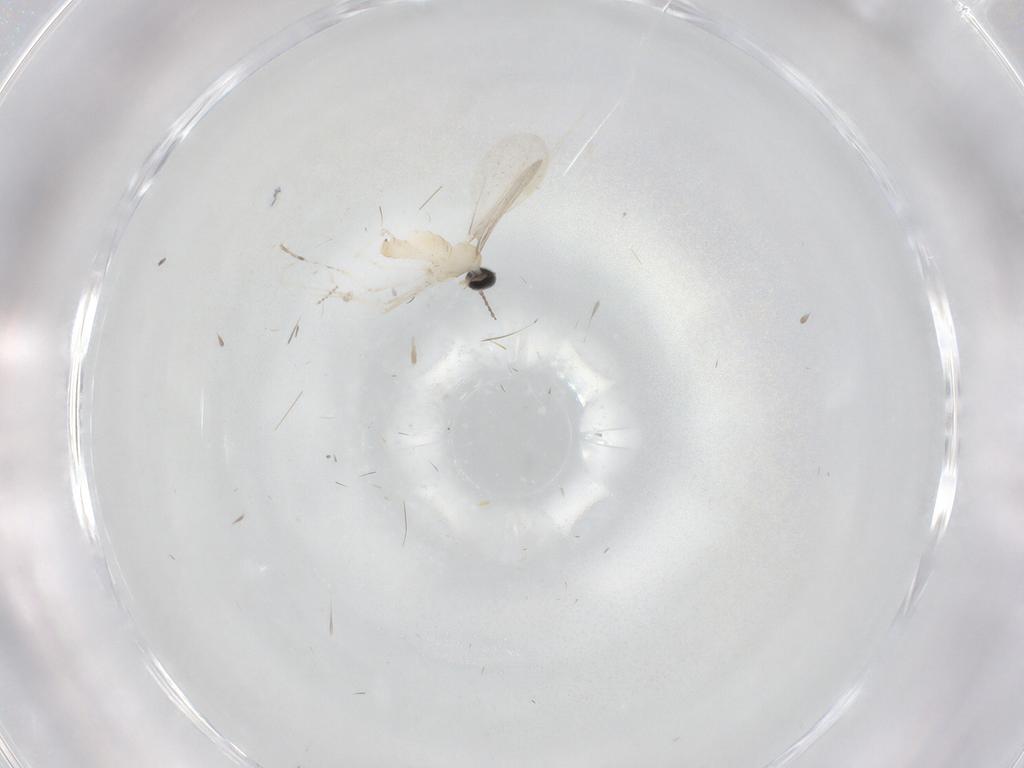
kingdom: Animalia
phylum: Arthropoda
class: Insecta
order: Diptera
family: Cecidomyiidae
